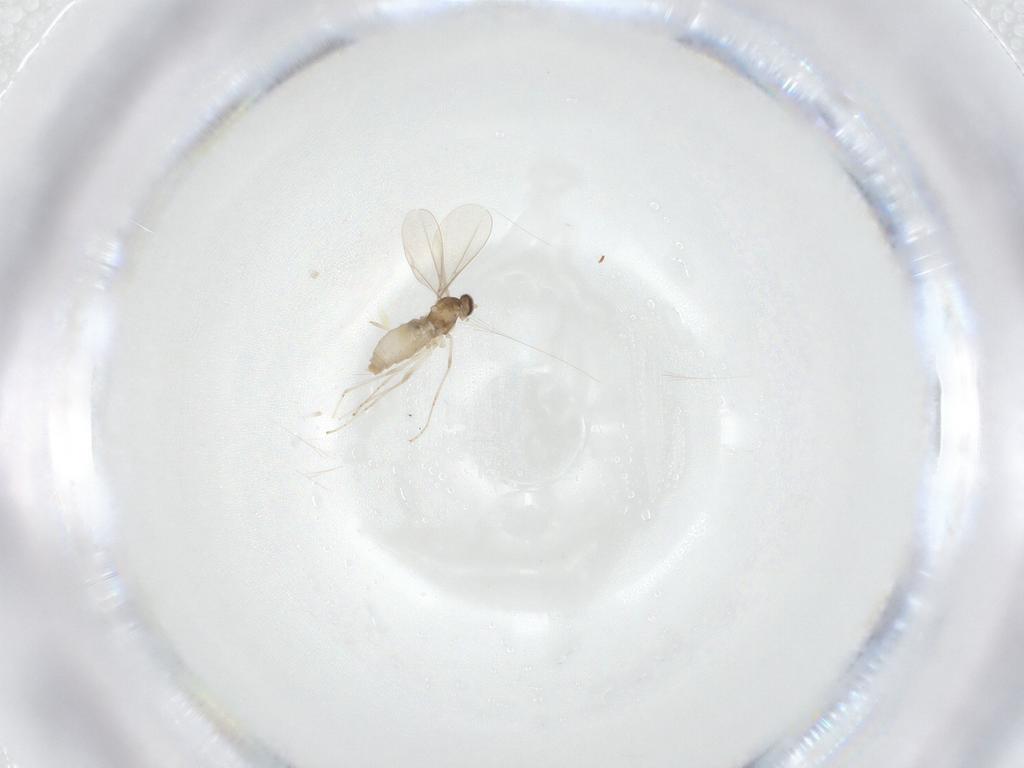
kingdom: Animalia
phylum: Arthropoda
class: Insecta
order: Diptera
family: Cecidomyiidae
